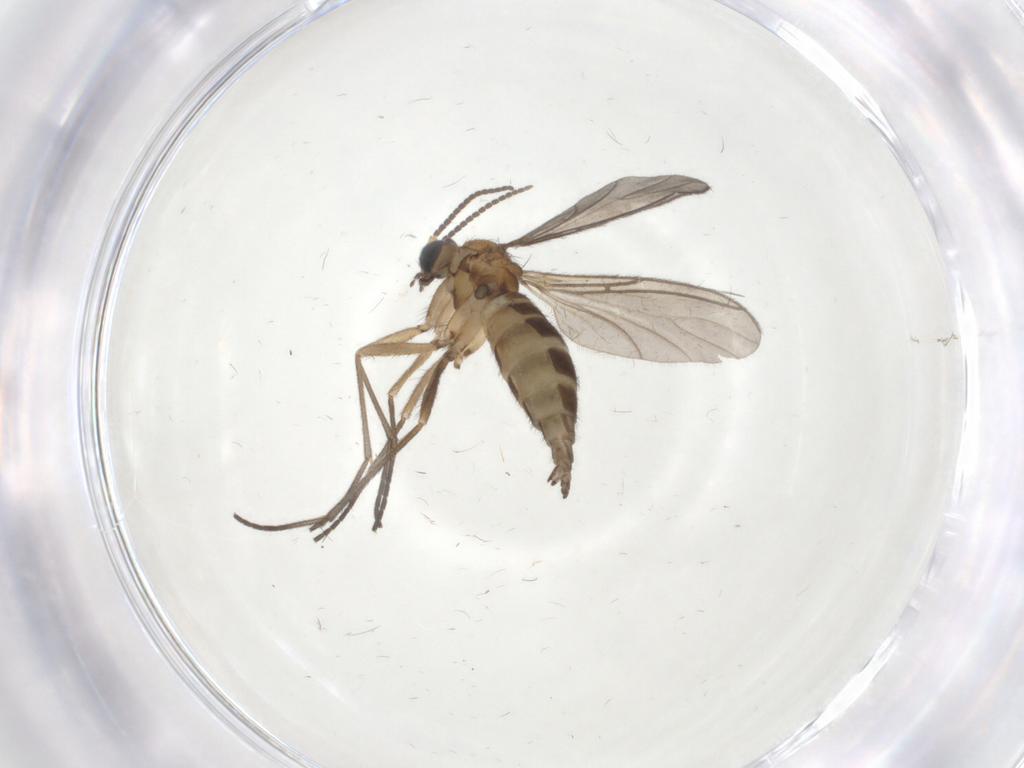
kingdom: Animalia
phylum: Arthropoda
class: Insecta
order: Diptera
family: Sciaridae
